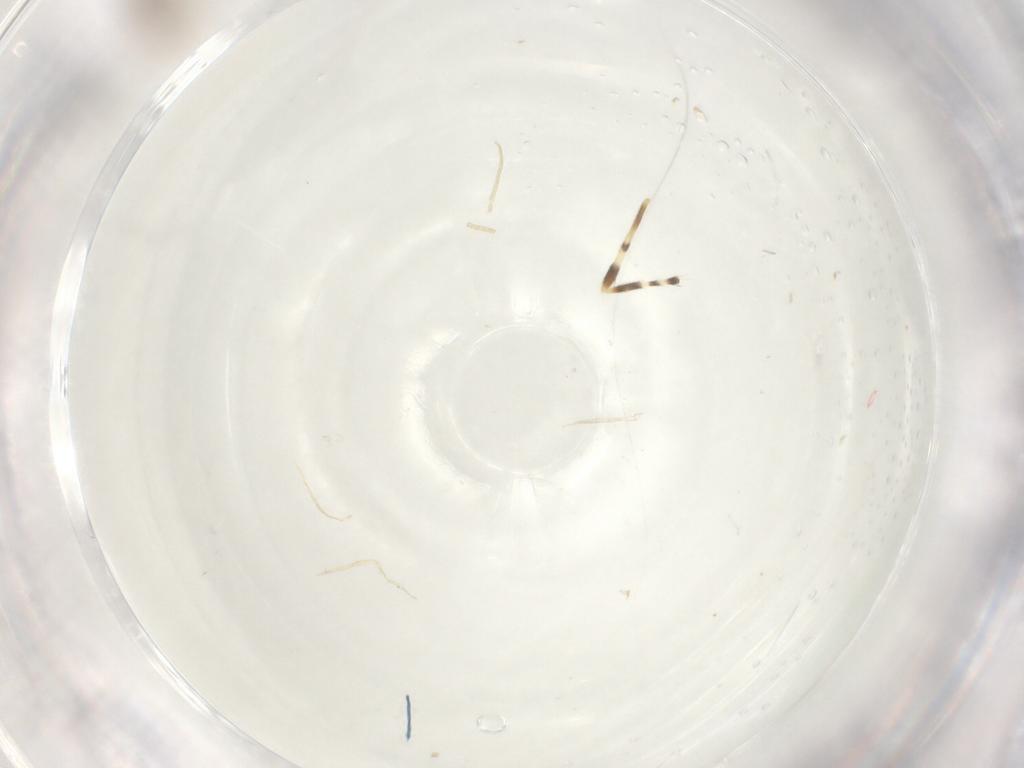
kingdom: Animalia
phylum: Arthropoda
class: Insecta
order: Diptera
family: Cecidomyiidae
